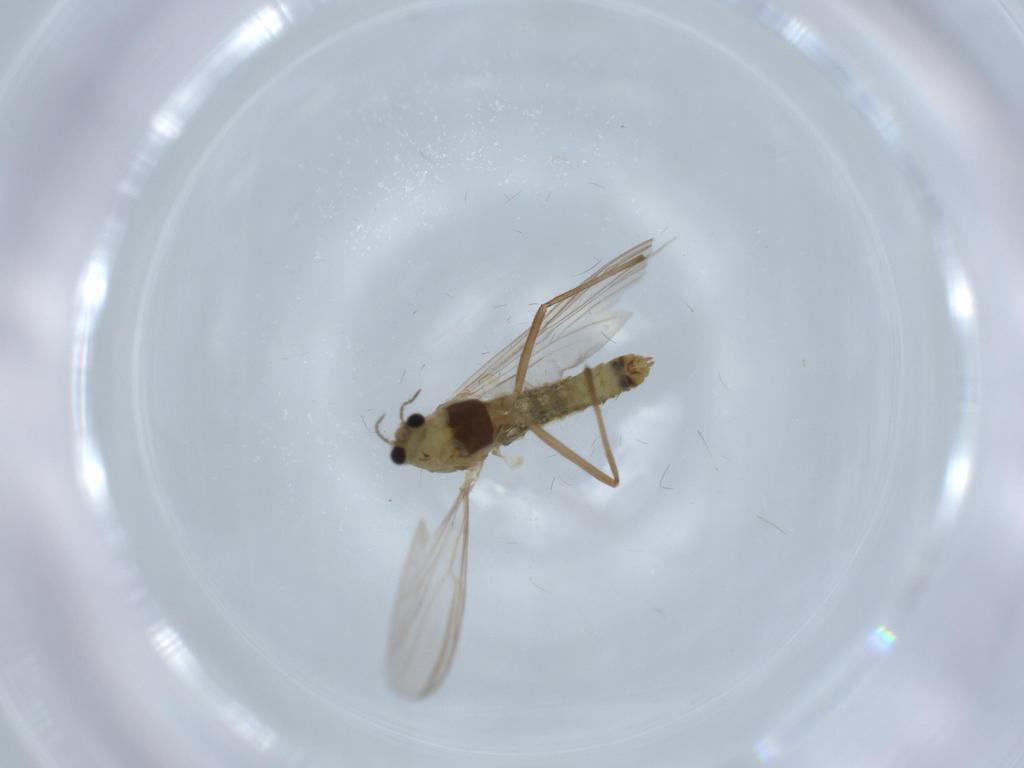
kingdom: Animalia
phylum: Arthropoda
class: Insecta
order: Diptera
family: Chironomidae
